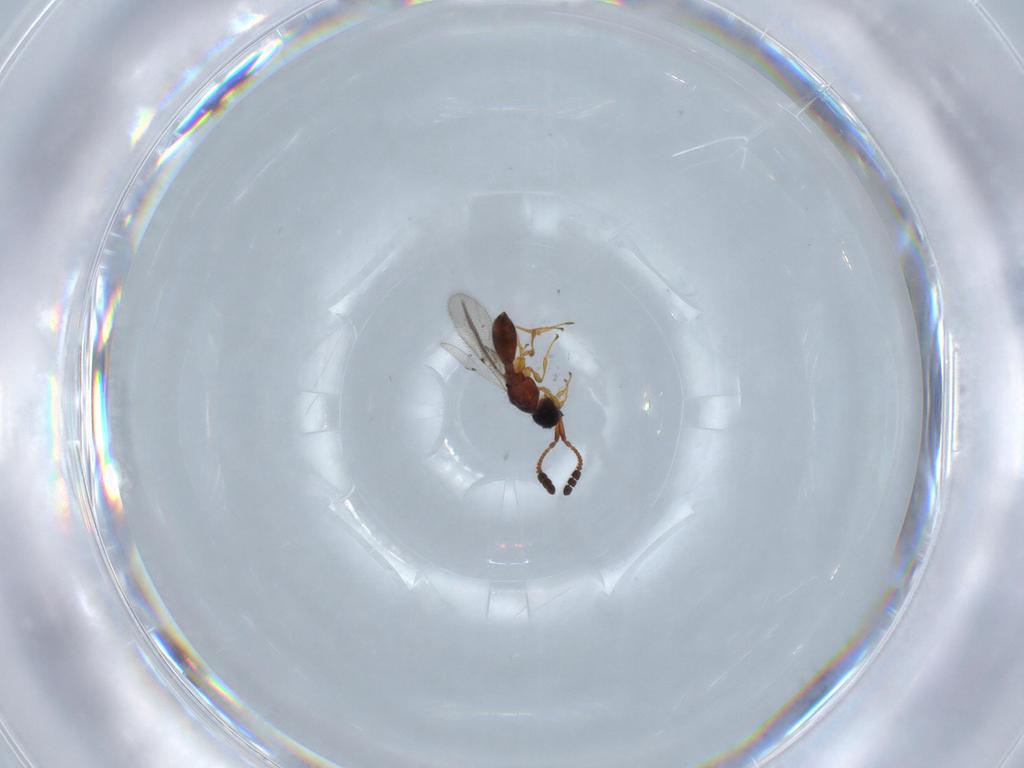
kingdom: Animalia
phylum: Arthropoda
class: Insecta
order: Hymenoptera
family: Diapriidae
